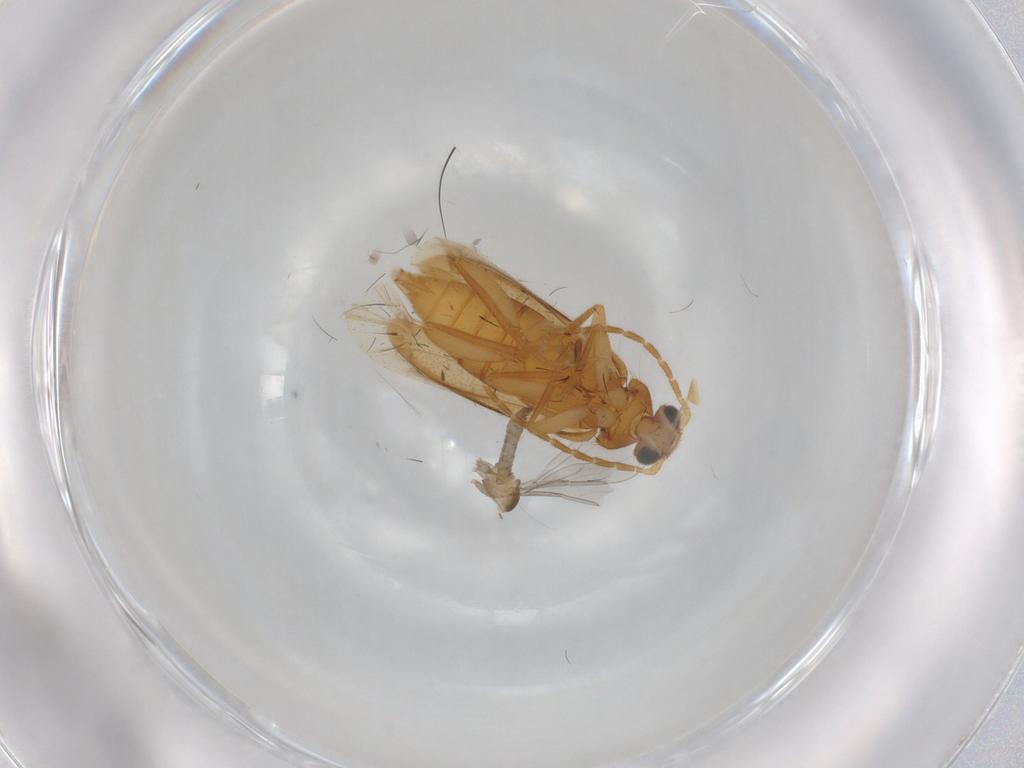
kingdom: Animalia
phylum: Arthropoda
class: Insecta
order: Coleoptera
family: Scraptiidae
